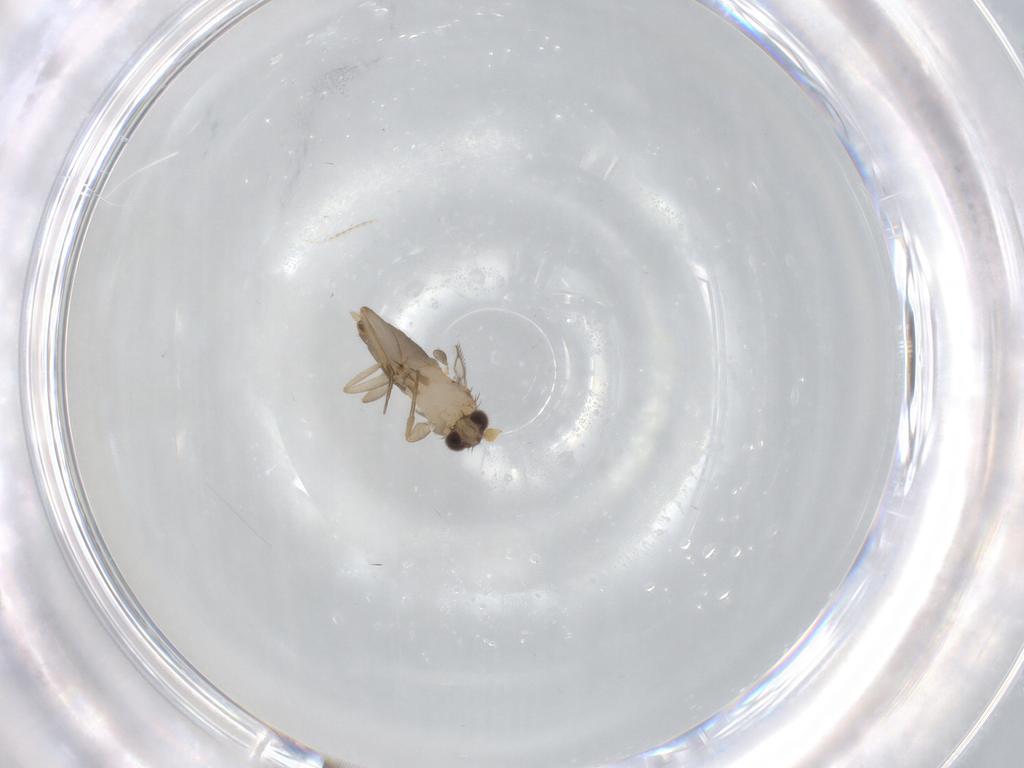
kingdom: Animalia
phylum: Arthropoda
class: Insecta
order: Diptera
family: Phoridae
